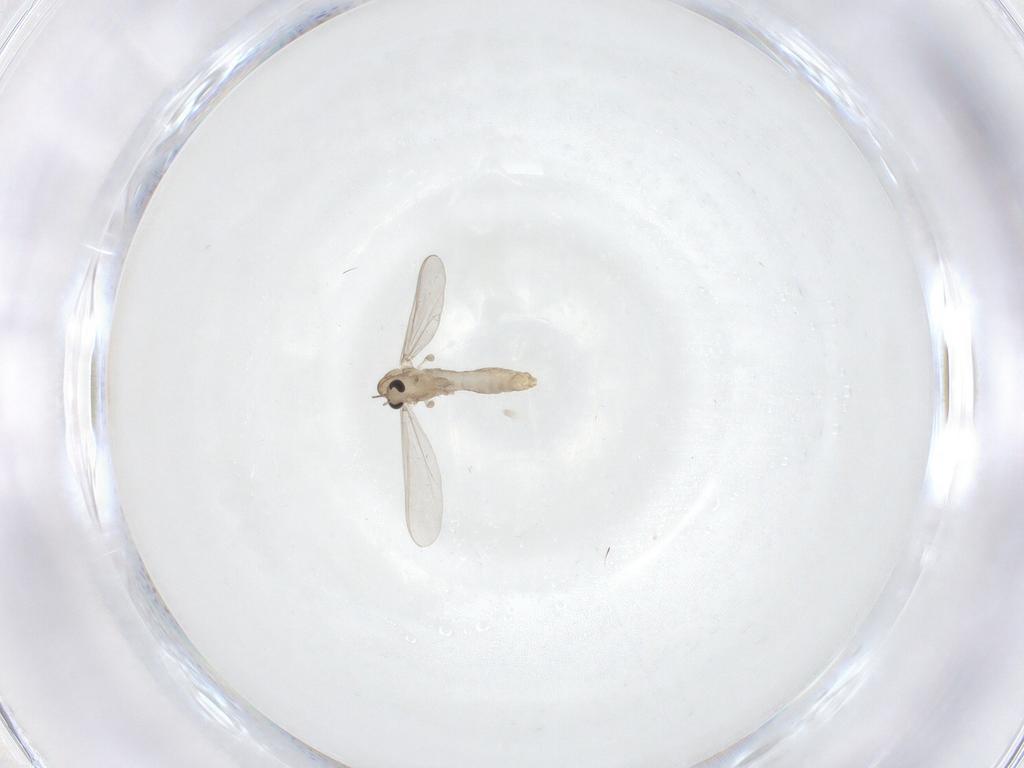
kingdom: Animalia
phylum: Arthropoda
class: Insecta
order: Diptera
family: Chironomidae
